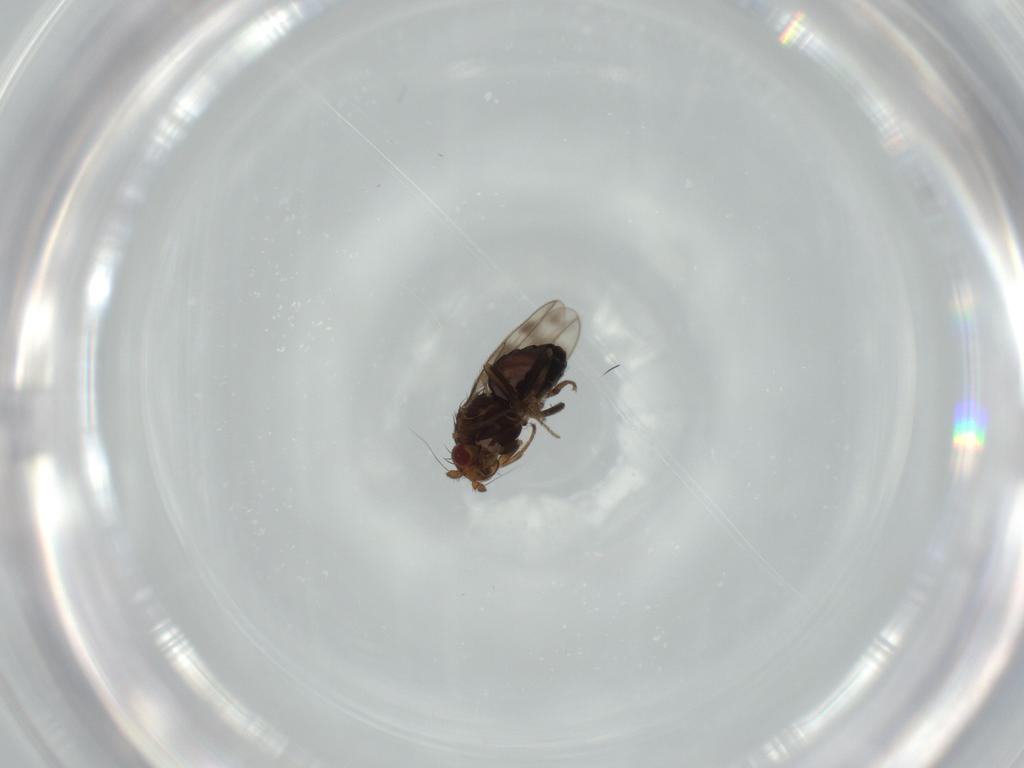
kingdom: Animalia
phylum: Arthropoda
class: Insecta
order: Diptera
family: Sphaeroceridae
